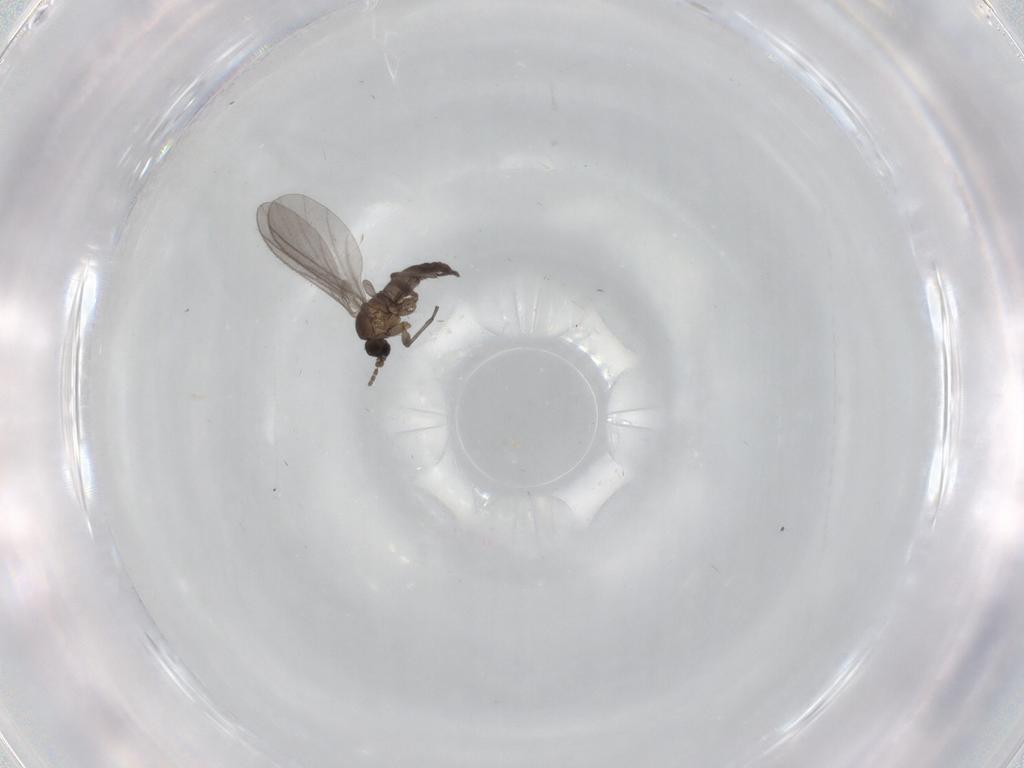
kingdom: Animalia
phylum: Arthropoda
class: Insecta
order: Diptera
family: Sciaridae
